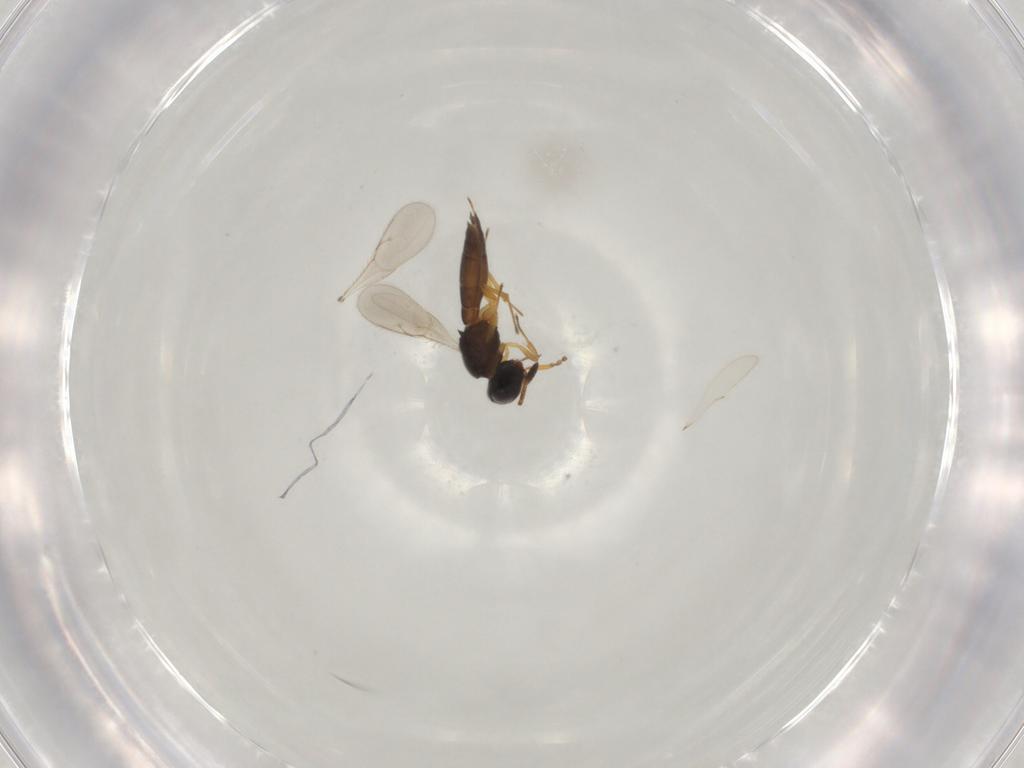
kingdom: Animalia
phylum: Arthropoda
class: Insecta
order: Hymenoptera
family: Scelionidae
